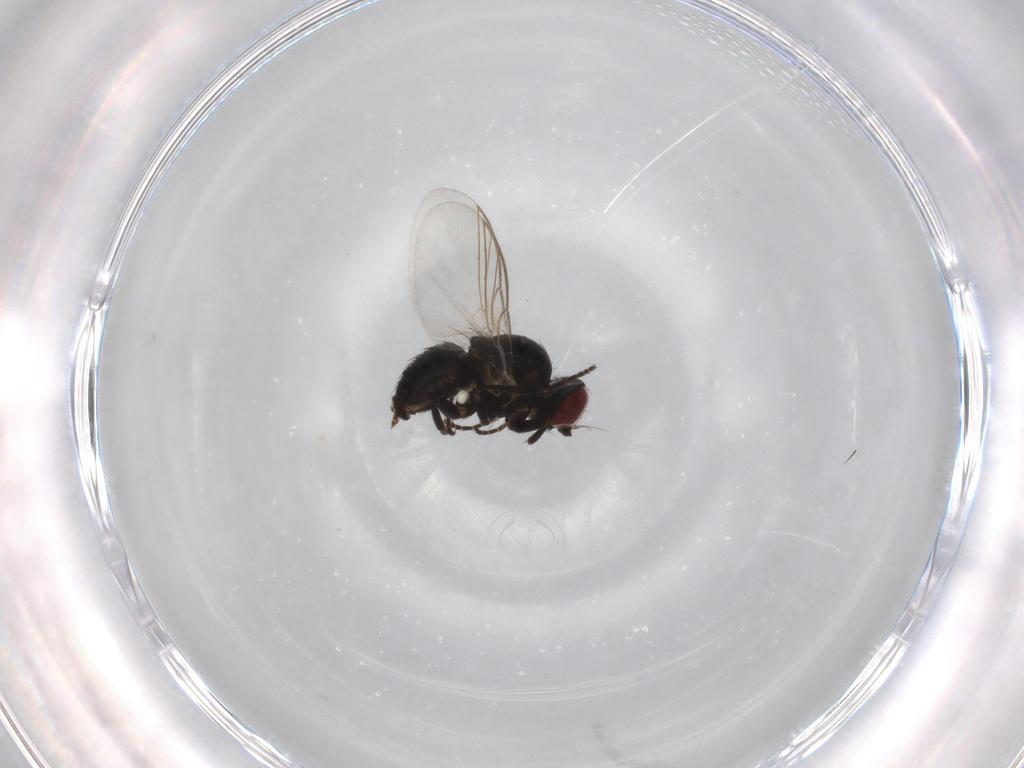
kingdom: Animalia
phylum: Arthropoda
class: Insecta
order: Diptera
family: Agromyzidae
